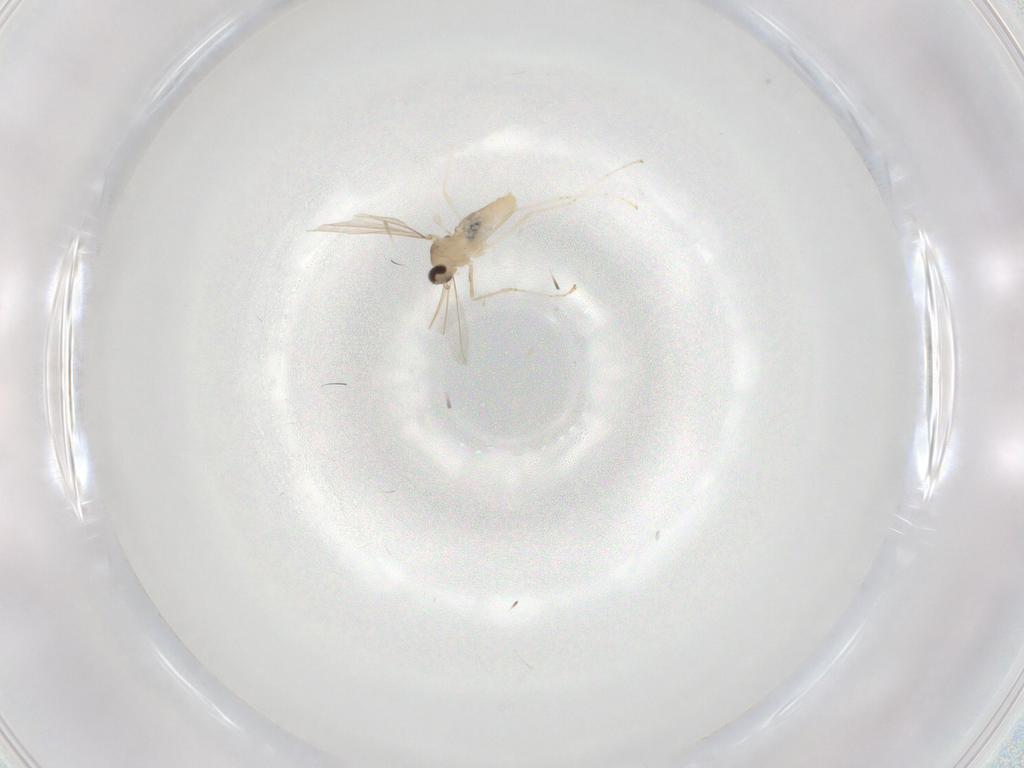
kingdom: Animalia
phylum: Arthropoda
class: Insecta
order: Diptera
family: Cecidomyiidae
